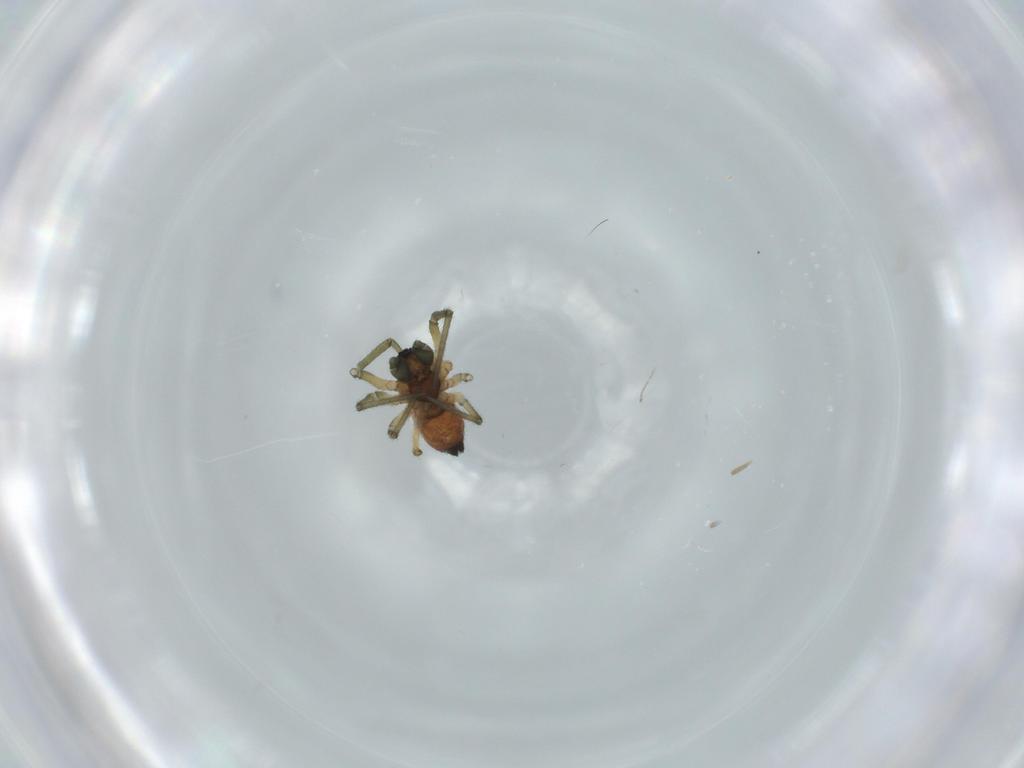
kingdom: Animalia
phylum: Arthropoda
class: Arachnida
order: Araneae
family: Linyphiidae
